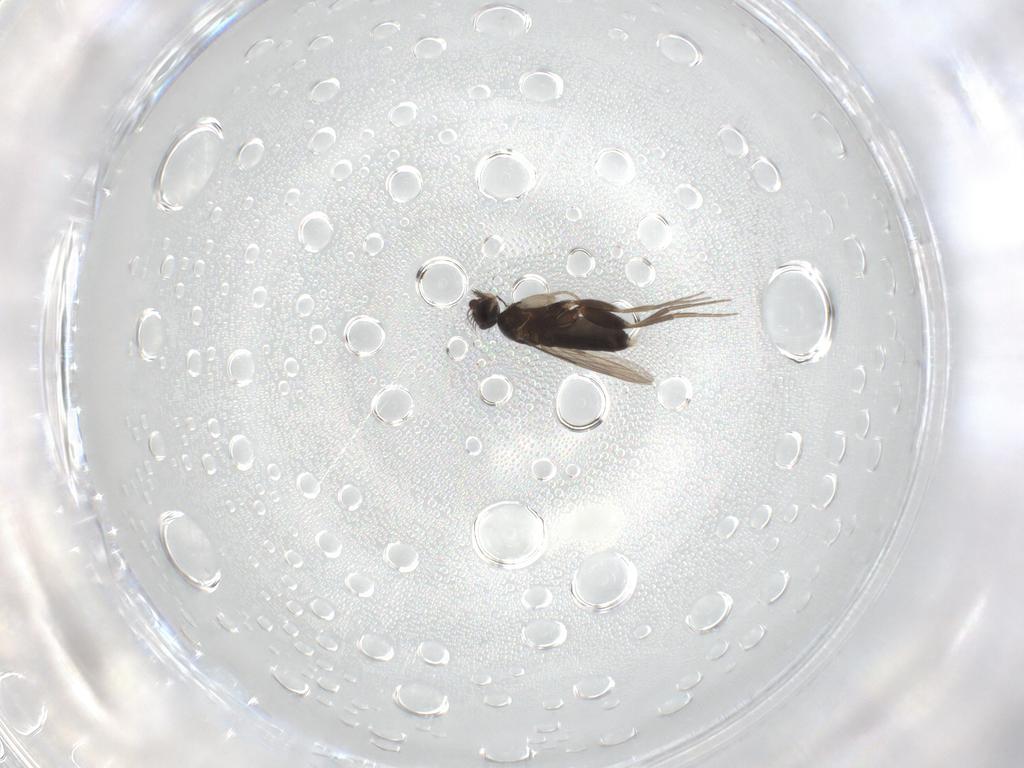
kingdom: Animalia
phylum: Arthropoda
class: Insecta
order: Diptera
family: Phoridae
